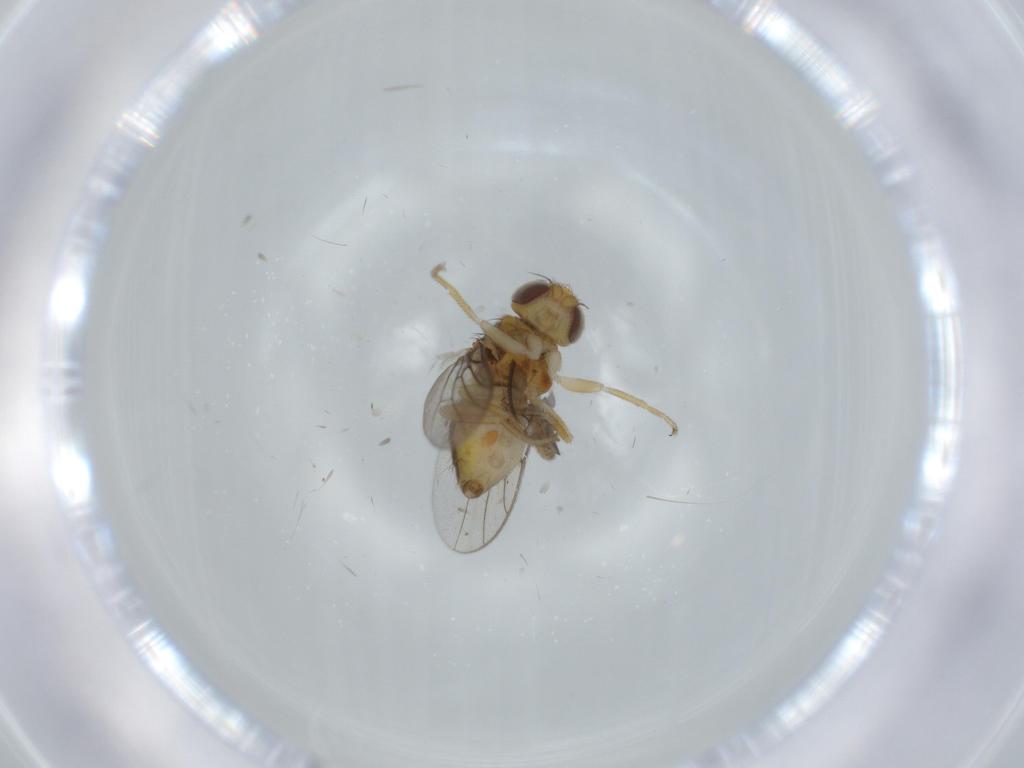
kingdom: Animalia
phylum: Arthropoda
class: Insecta
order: Diptera
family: Chloropidae
